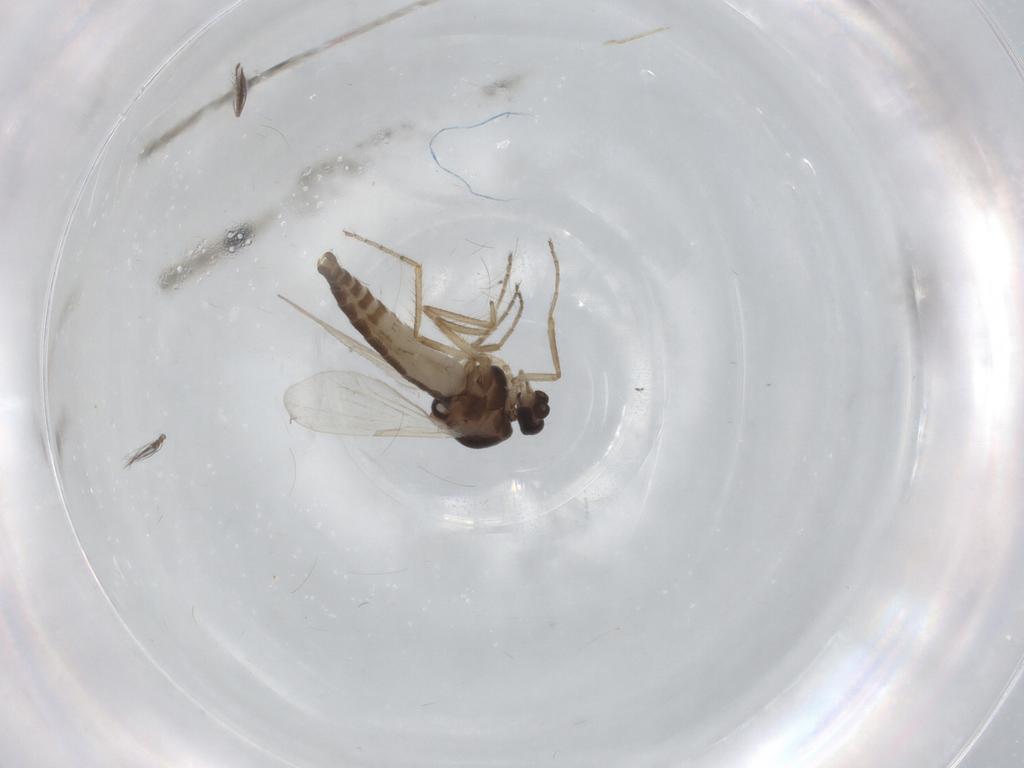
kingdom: Animalia
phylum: Arthropoda
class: Insecta
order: Diptera
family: Ceratopogonidae
